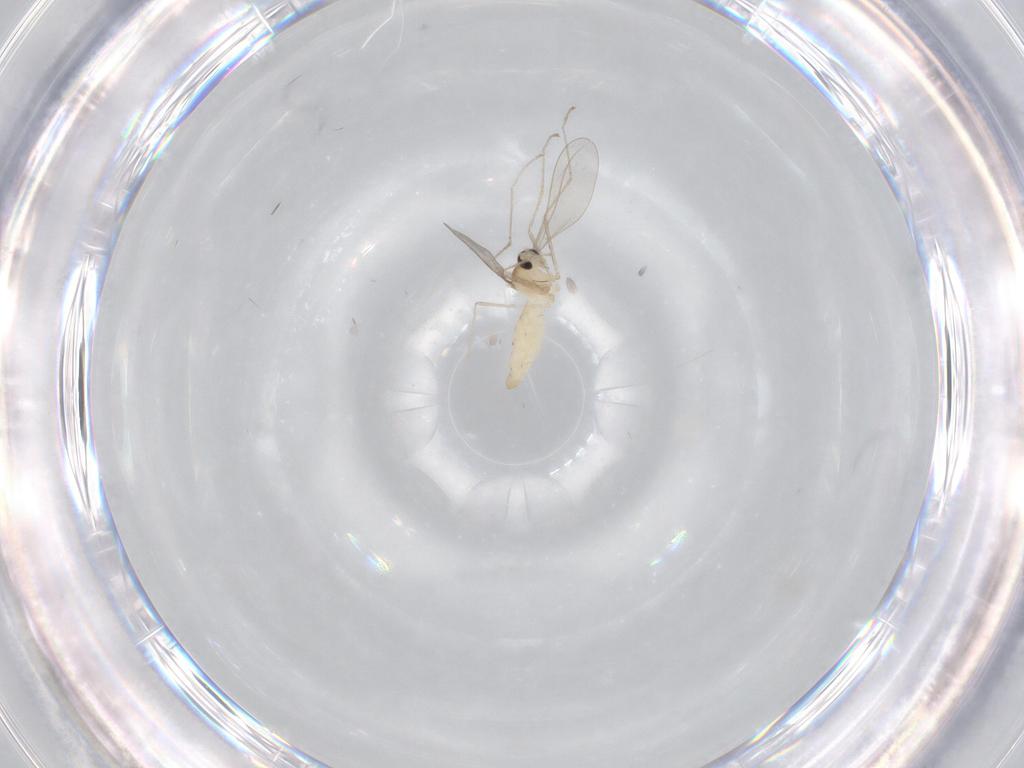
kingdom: Animalia
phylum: Arthropoda
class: Insecta
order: Diptera
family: Cecidomyiidae
